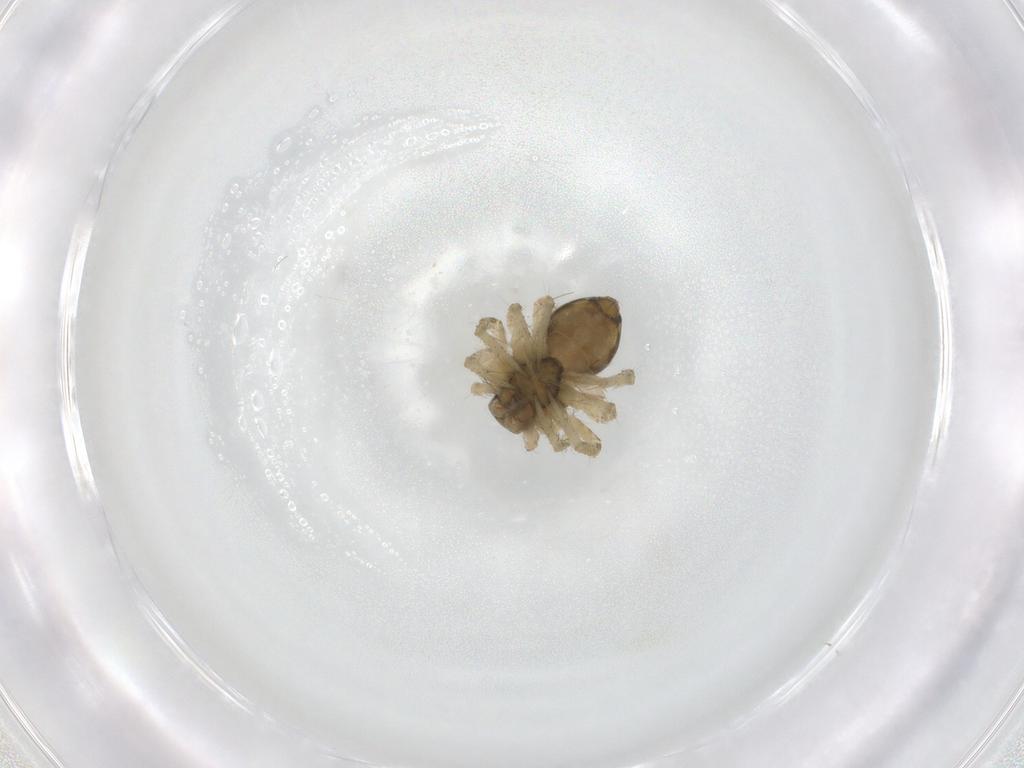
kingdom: Animalia
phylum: Arthropoda
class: Arachnida
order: Araneae
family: Pisauridae
